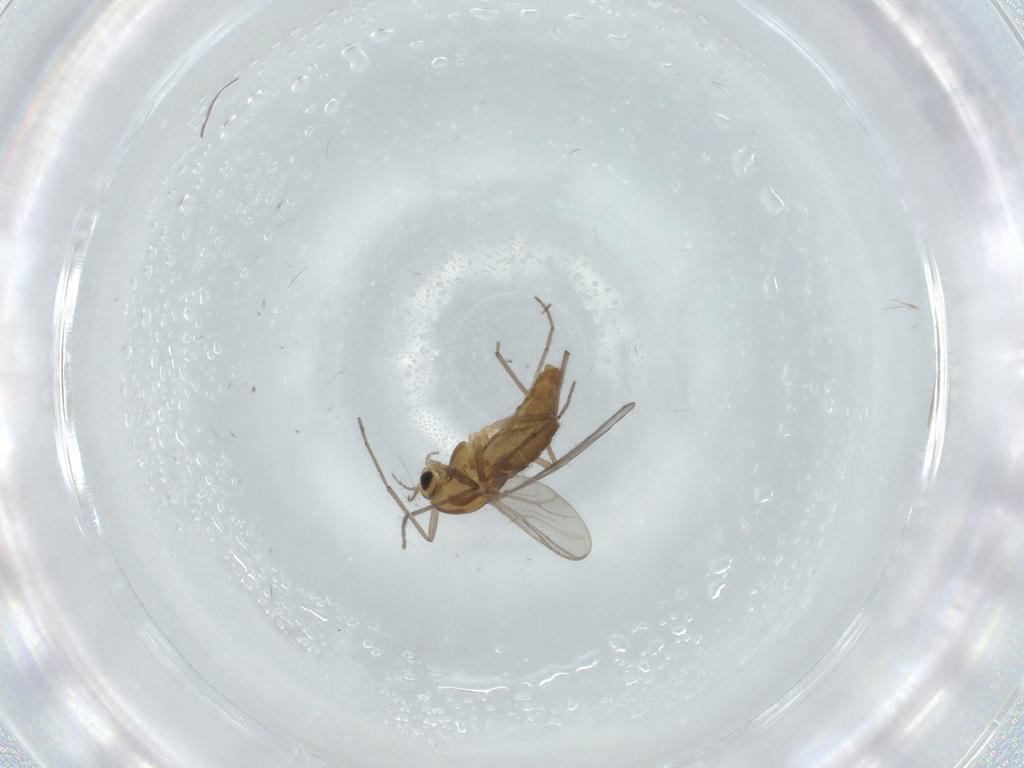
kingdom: Animalia
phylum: Arthropoda
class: Insecta
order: Diptera
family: Chironomidae
